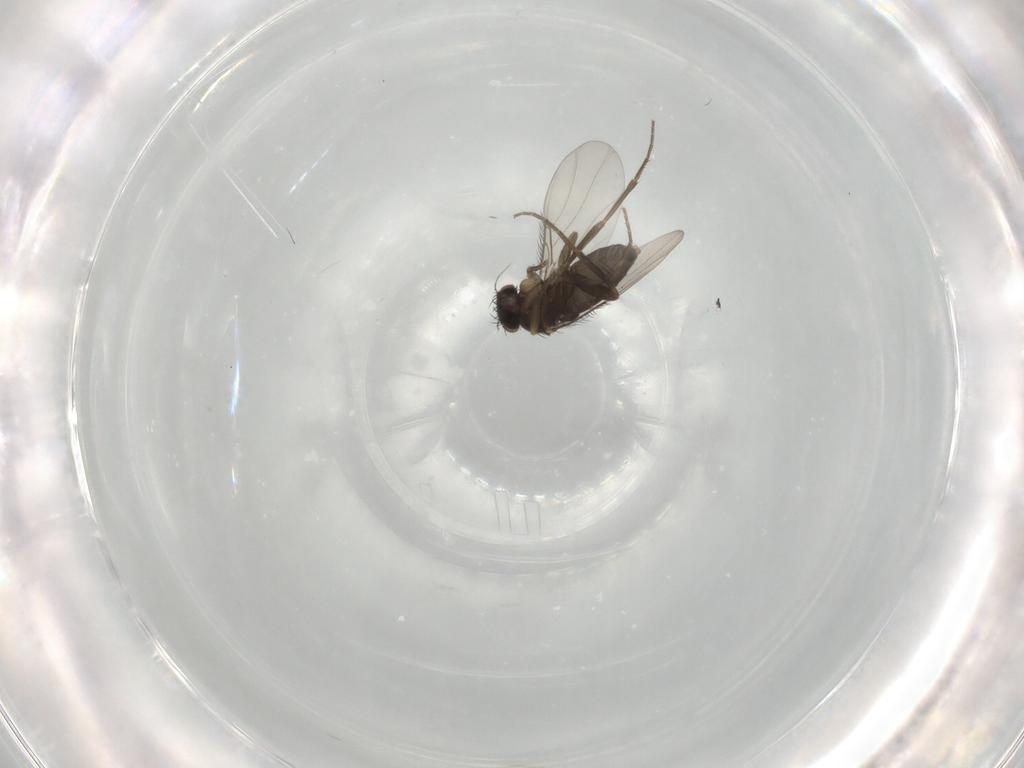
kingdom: Animalia
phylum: Arthropoda
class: Insecta
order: Diptera
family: Phoridae
